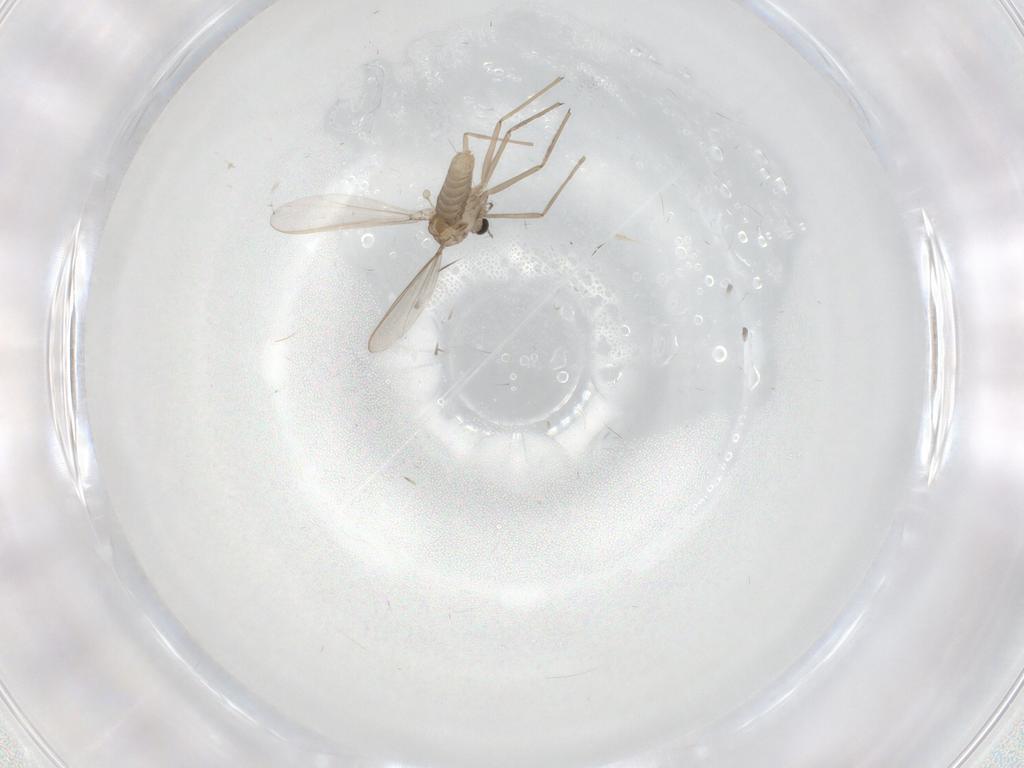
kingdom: Animalia
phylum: Arthropoda
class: Insecta
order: Diptera
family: Chironomidae
